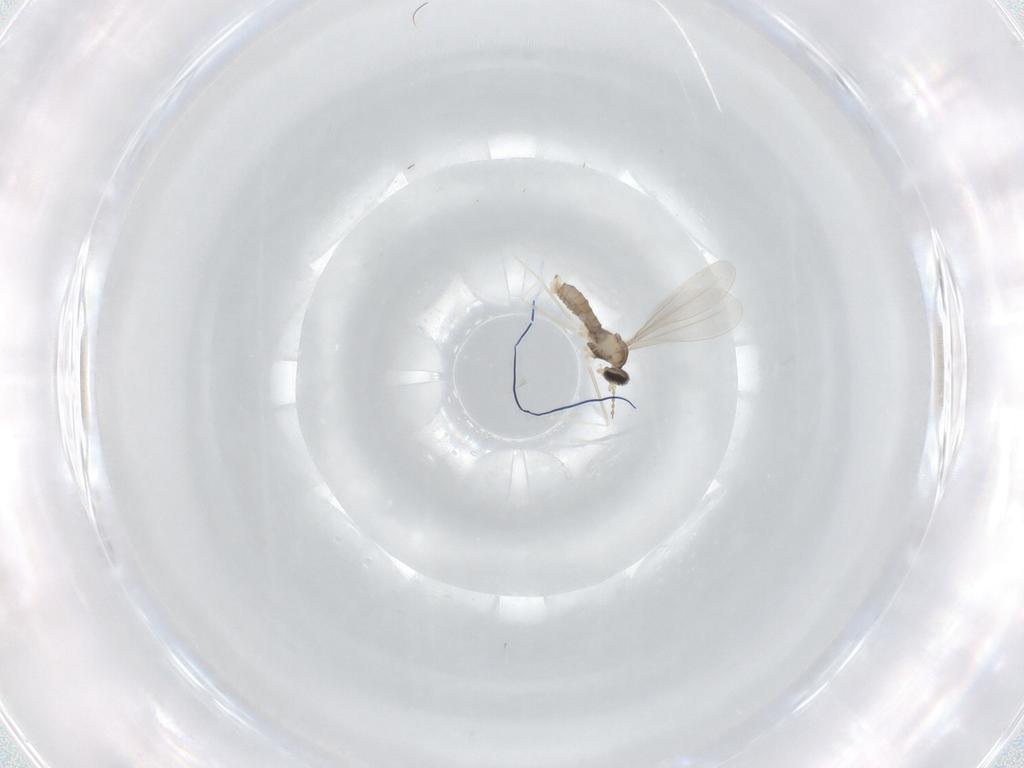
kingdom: Animalia
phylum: Arthropoda
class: Insecta
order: Diptera
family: Cecidomyiidae
